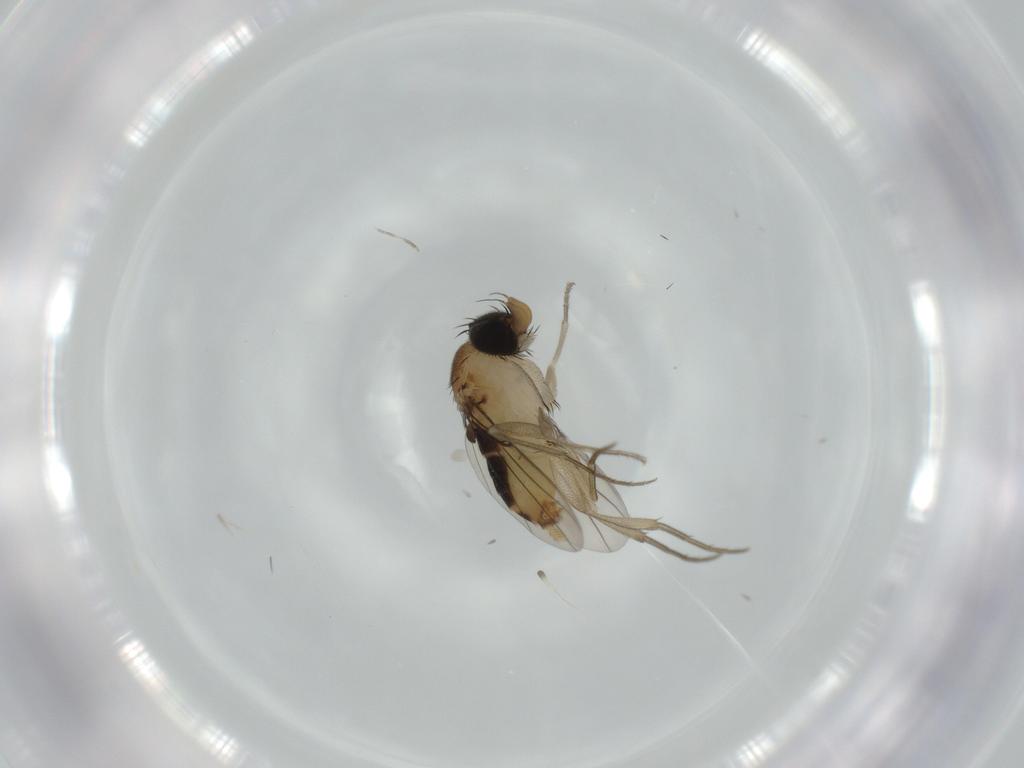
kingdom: Animalia
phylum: Arthropoda
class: Insecta
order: Diptera
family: Phoridae
